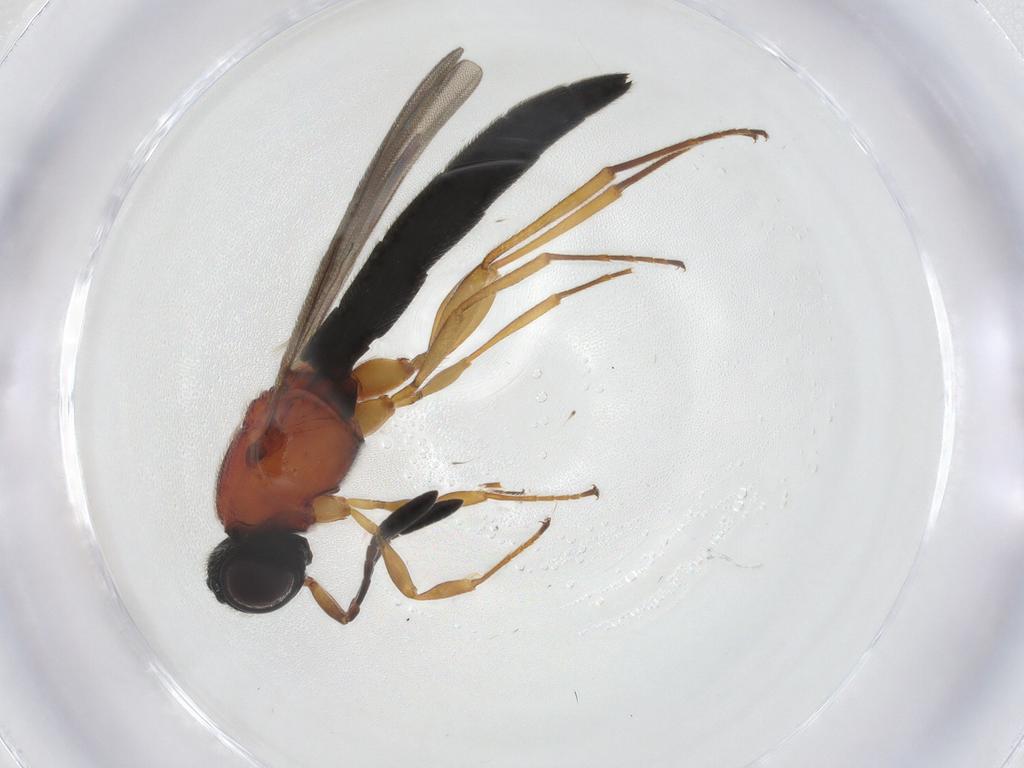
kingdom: Animalia
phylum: Arthropoda
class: Insecta
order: Hymenoptera
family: Scelionidae
